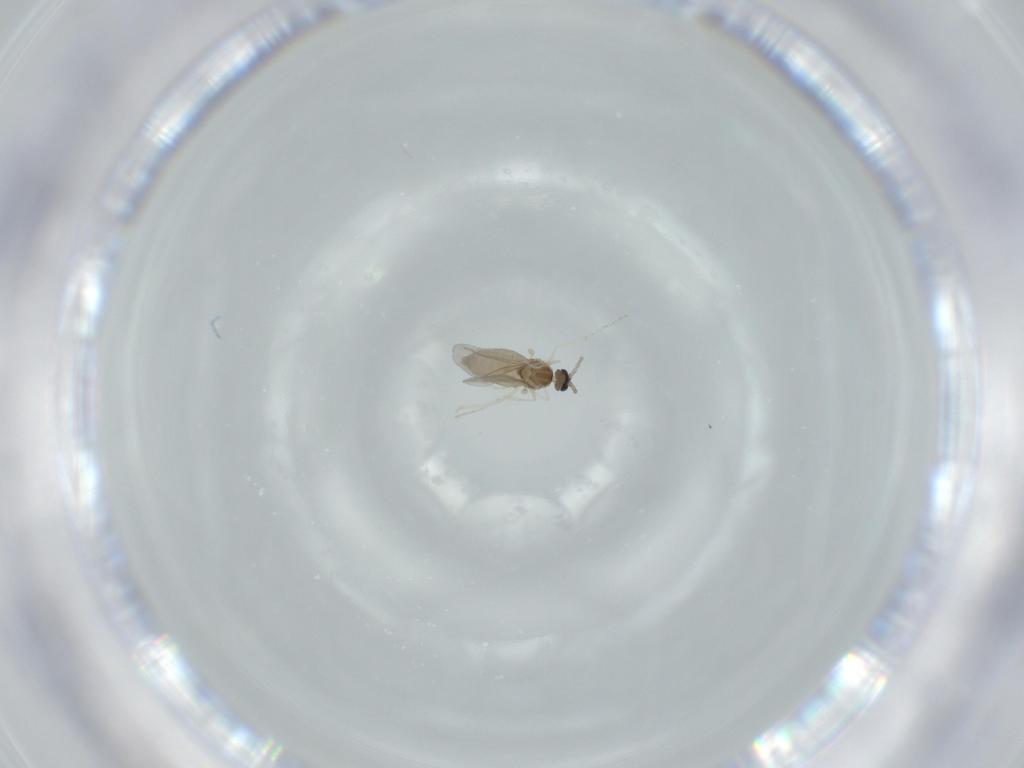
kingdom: Animalia
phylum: Arthropoda
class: Insecta
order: Diptera
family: Cecidomyiidae
